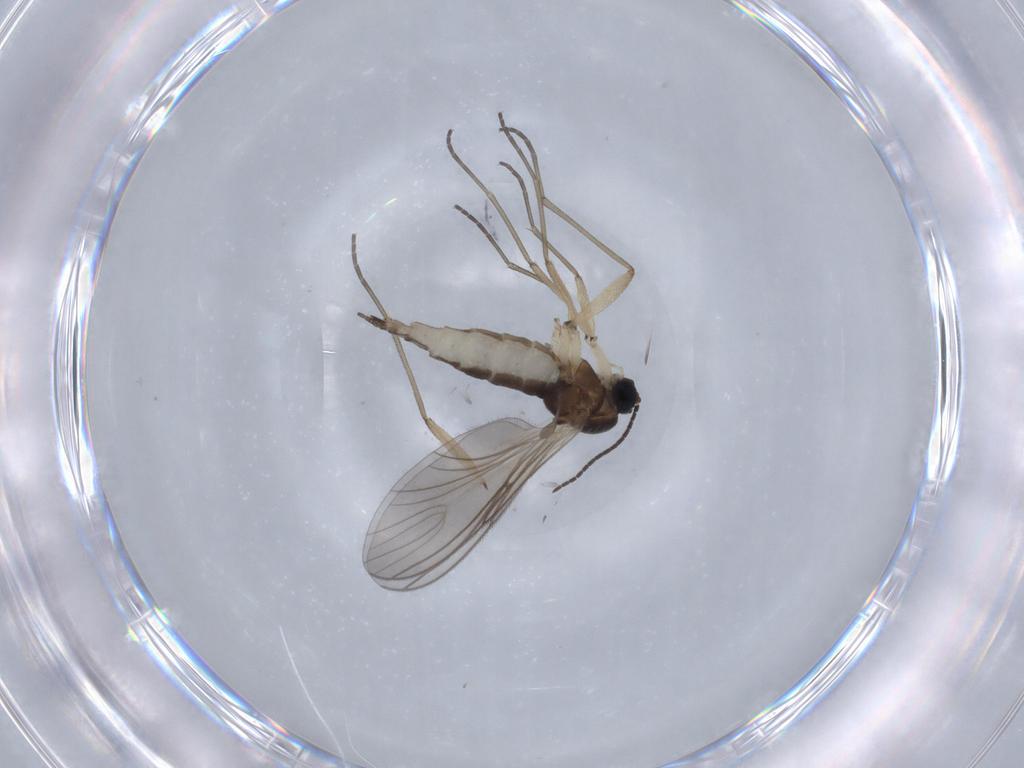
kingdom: Animalia
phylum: Arthropoda
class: Insecta
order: Diptera
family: Sciaridae
